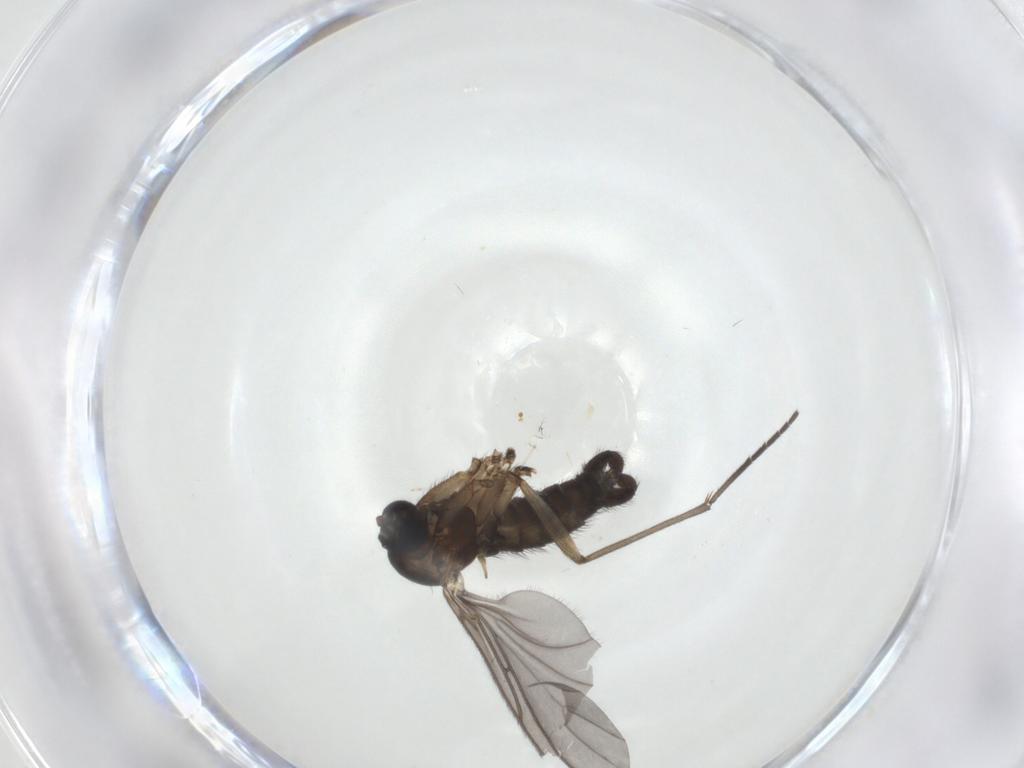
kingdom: Animalia
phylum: Arthropoda
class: Insecta
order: Diptera
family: Sciaridae
